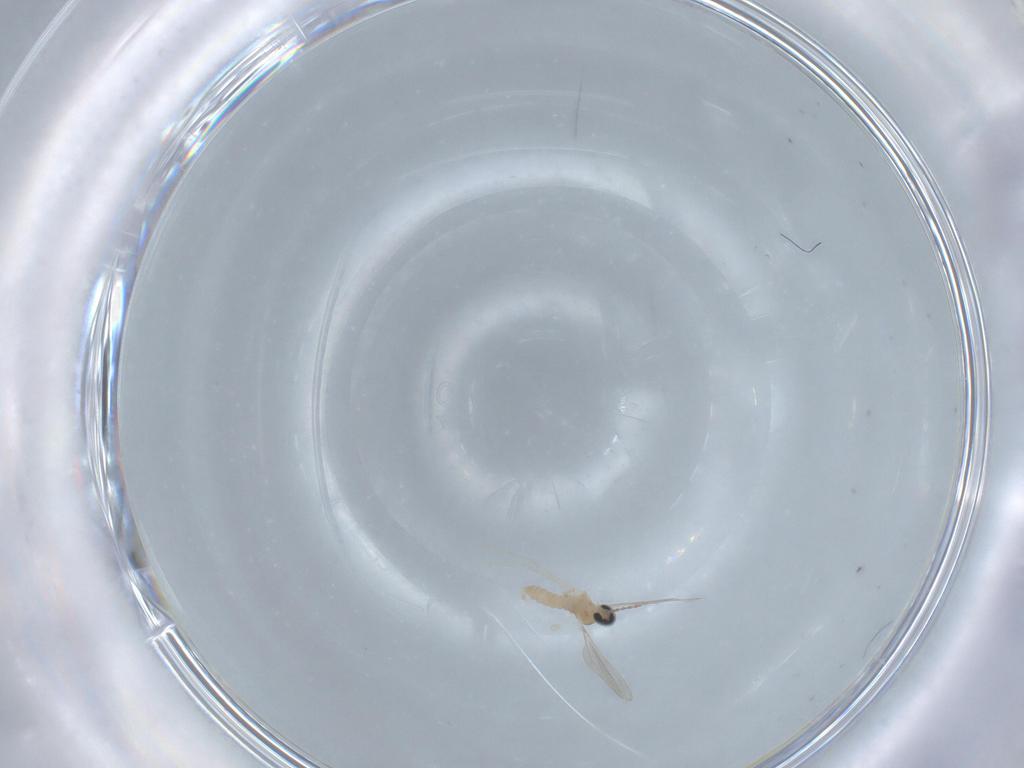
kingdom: Animalia
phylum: Arthropoda
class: Insecta
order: Diptera
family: Cecidomyiidae
